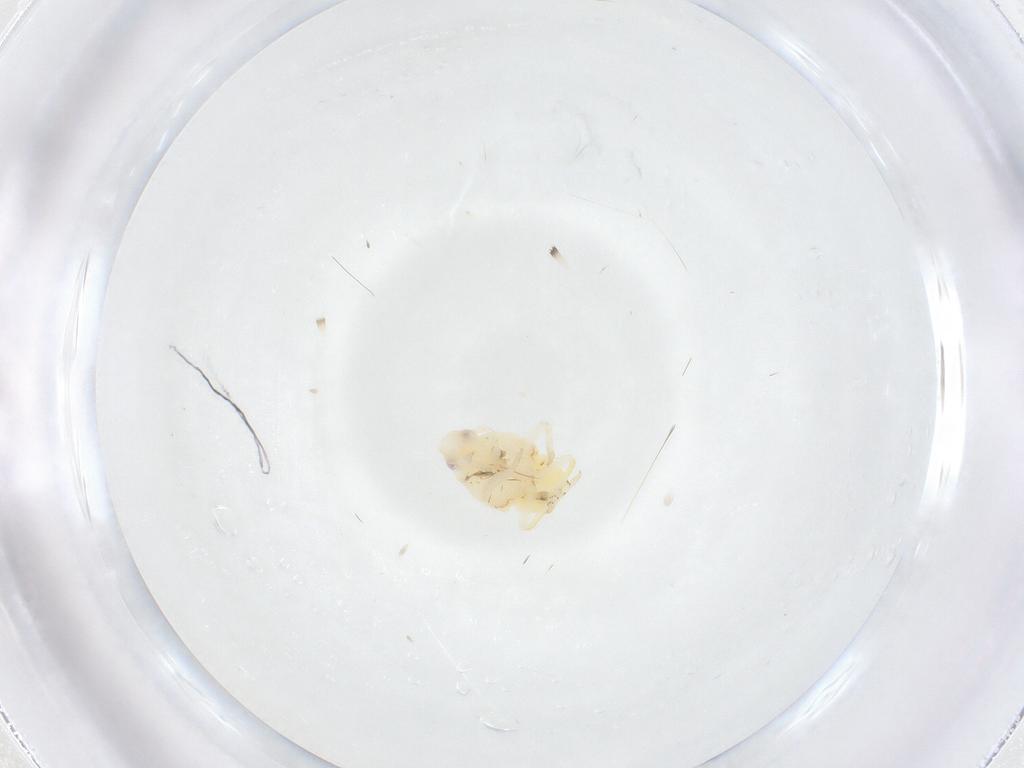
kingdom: Animalia
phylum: Arthropoda
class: Insecta
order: Hemiptera
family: Fulgoroidea_incertae_sedis
